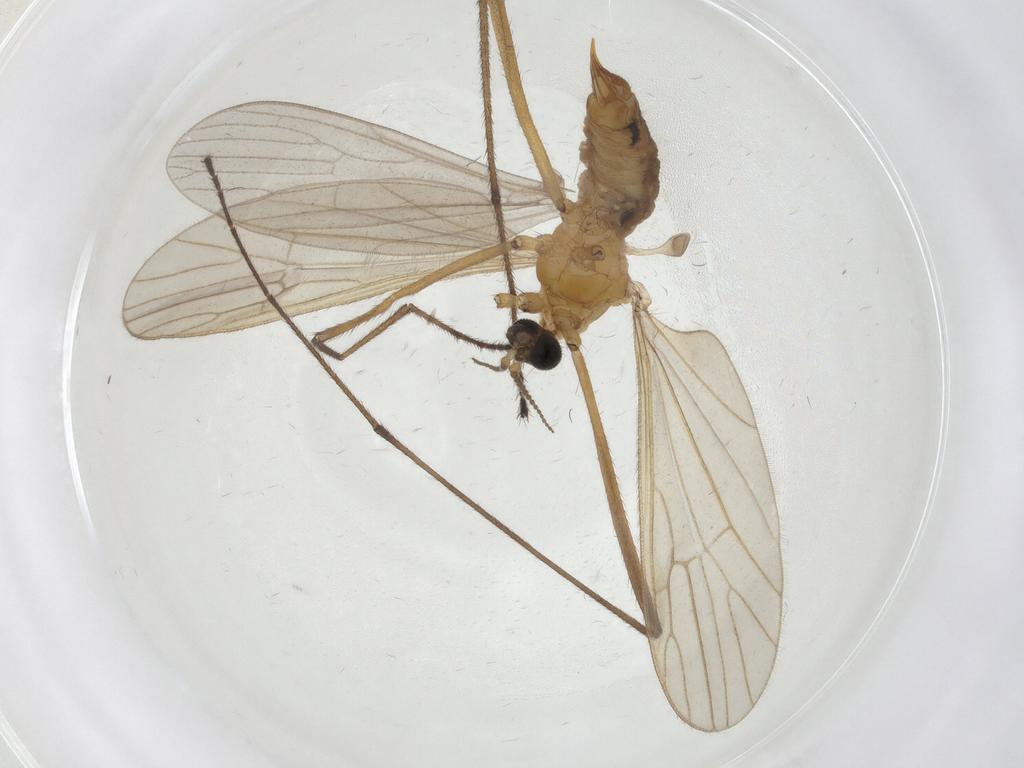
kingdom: Animalia
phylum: Arthropoda
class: Insecta
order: Diptera
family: Limoniidae
